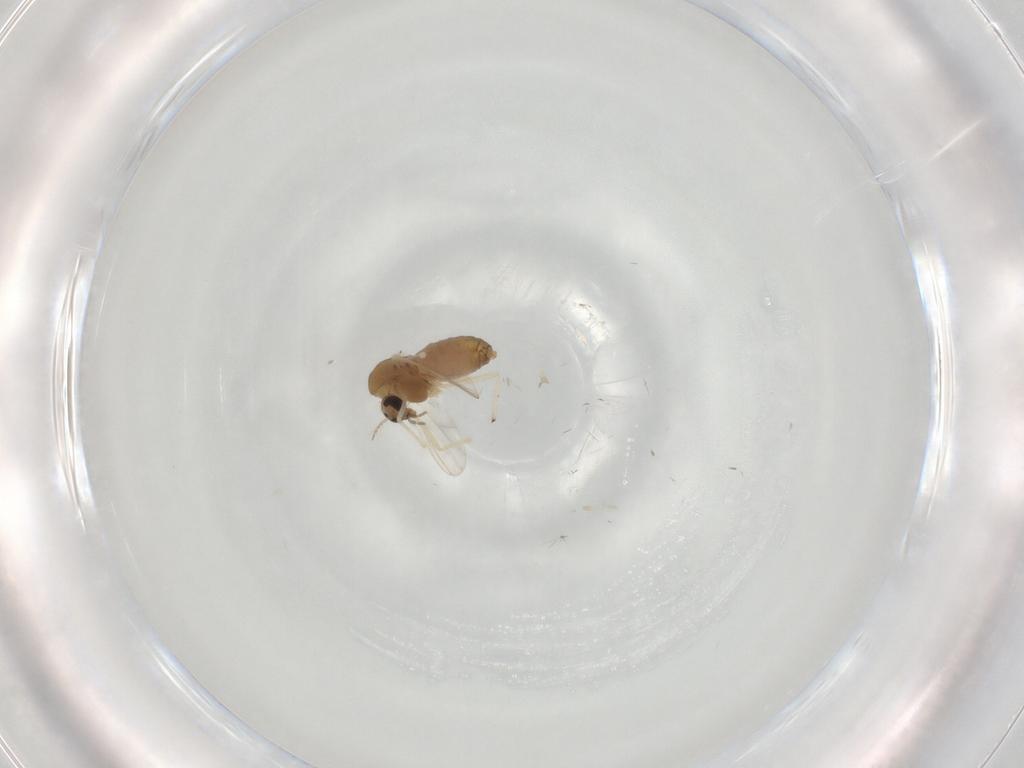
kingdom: Animalia
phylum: Arthropoda
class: Insecta
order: Diptera
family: Chironomidae
